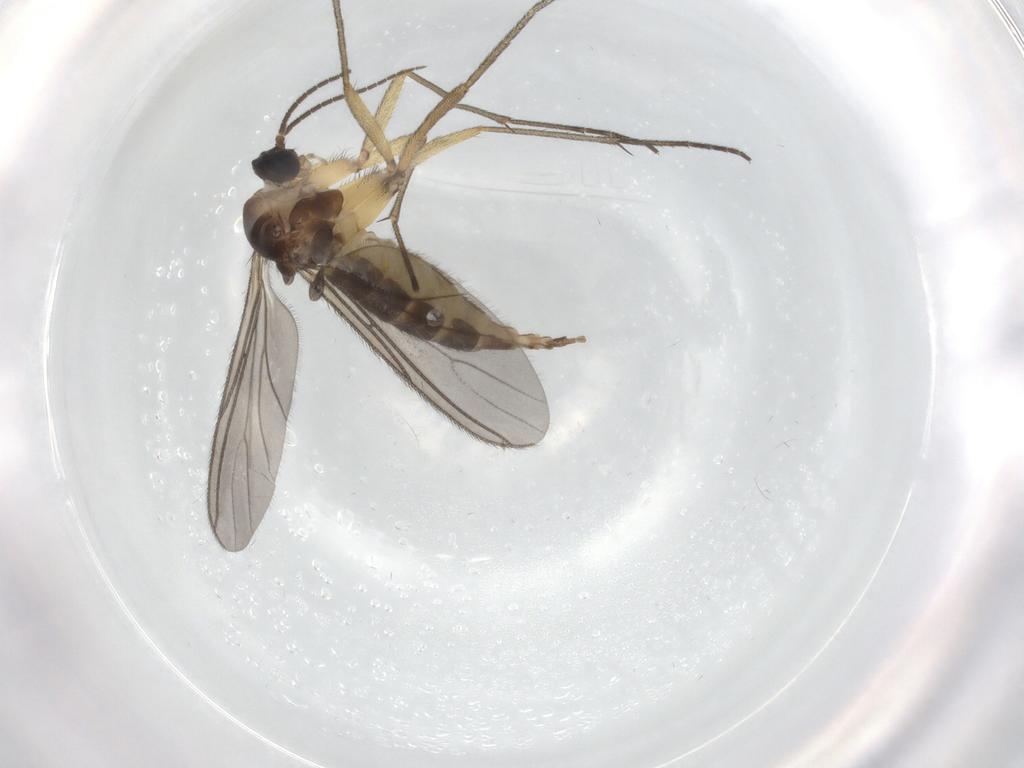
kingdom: Animalia
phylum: Arthropoda
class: Insecta
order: Diptera
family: Sciaridae
